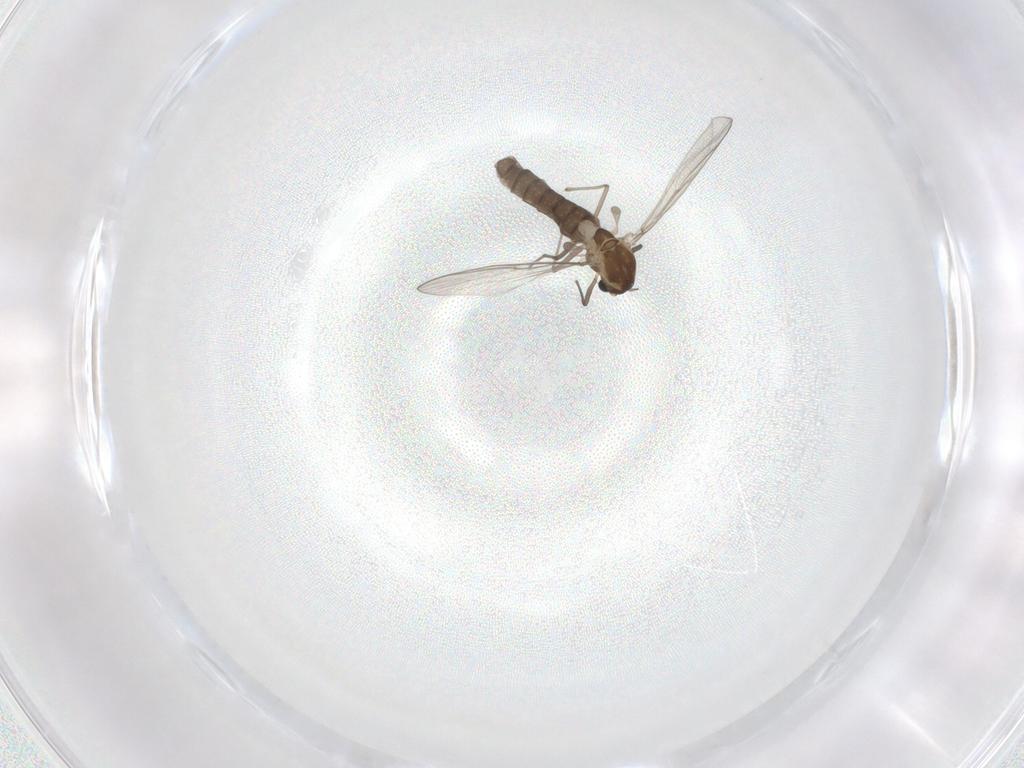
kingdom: Animalia
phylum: Arthropoda
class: Insecta
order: Diptera
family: Chironomidae
